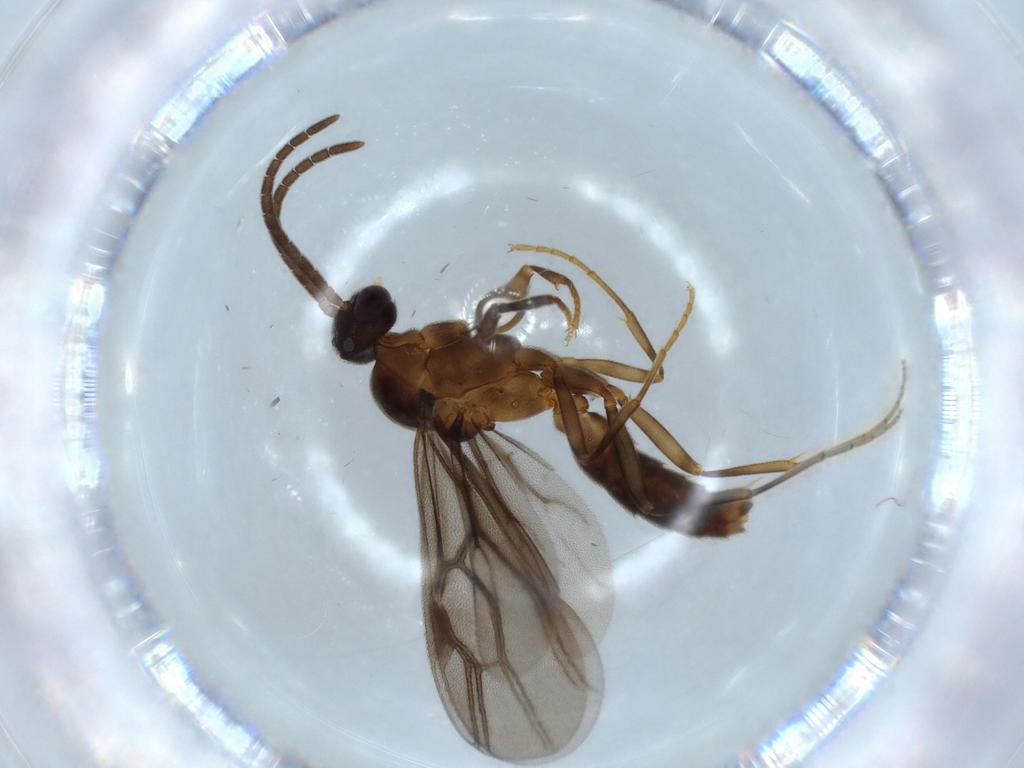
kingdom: Animalia
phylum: Arthropoda
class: Insecta
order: Hymenoptera
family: Formicidae
